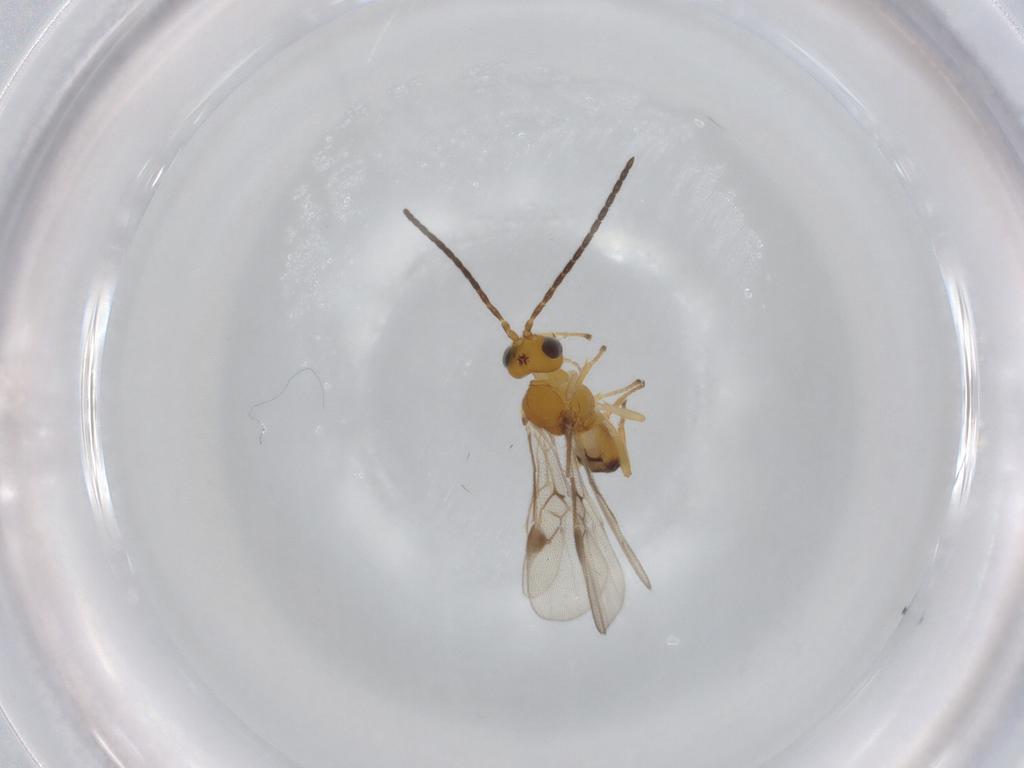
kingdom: Animalia
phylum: Arthropoda
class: Insecta
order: Hymenoptera
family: Braconidae
